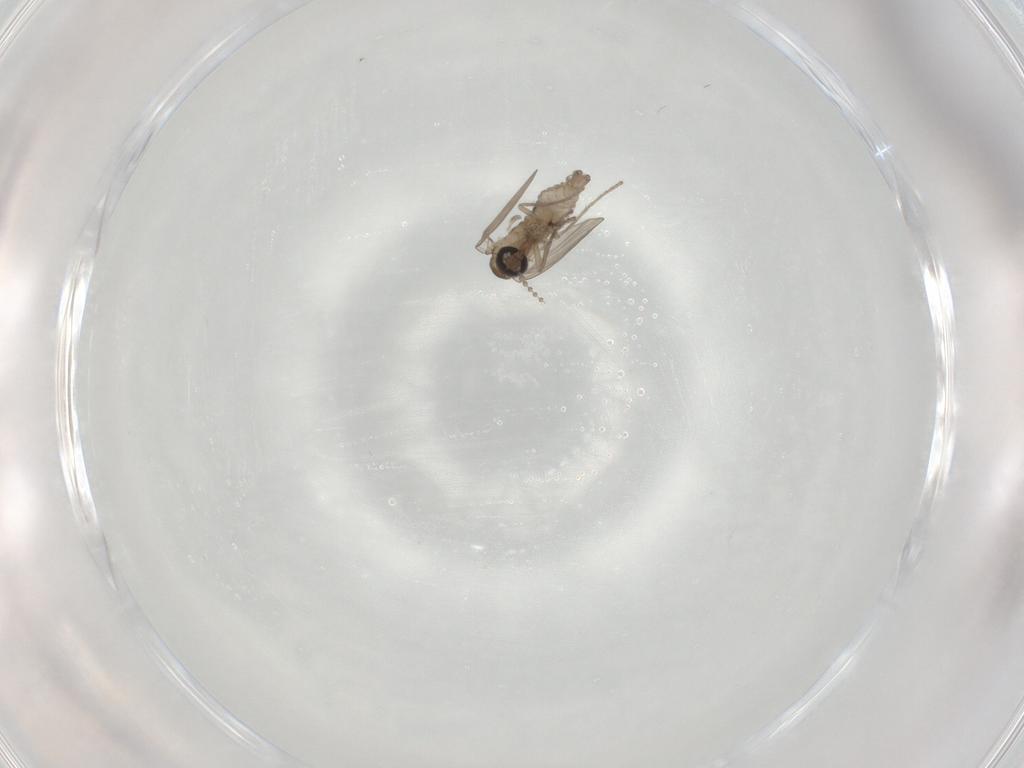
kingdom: Animalia
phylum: Arthropoda
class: Insecta
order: Diptera
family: Psychodidae
